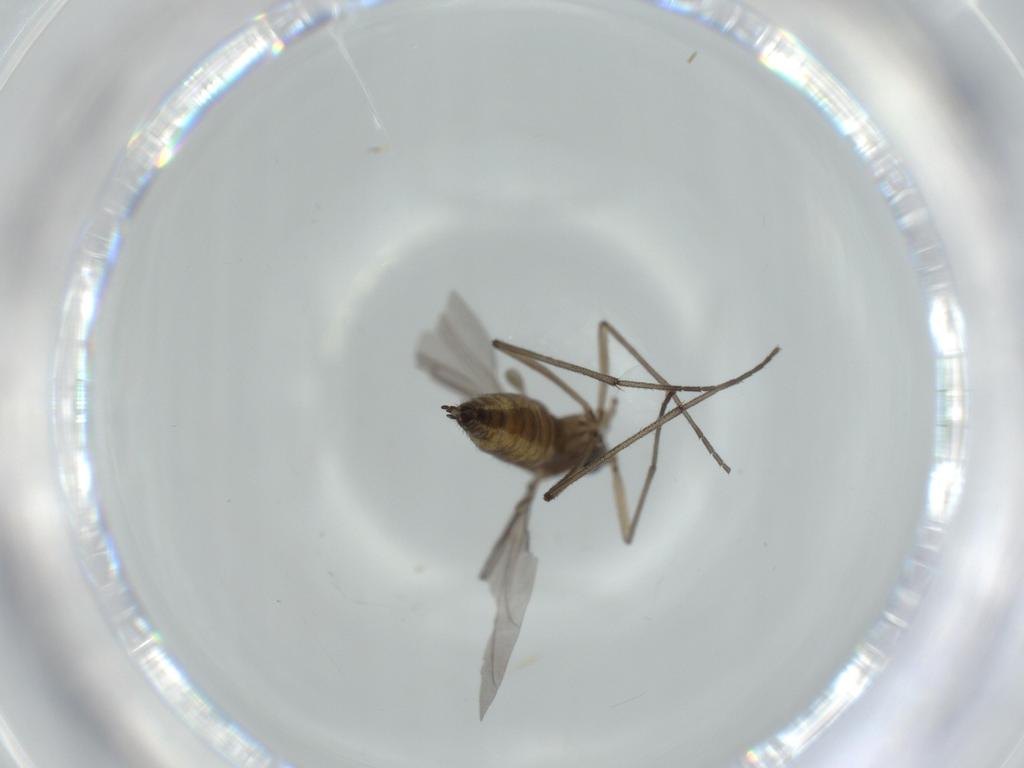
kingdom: Animalia
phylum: Arthropoda
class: Insecta
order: Diptera
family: Sciaridae
